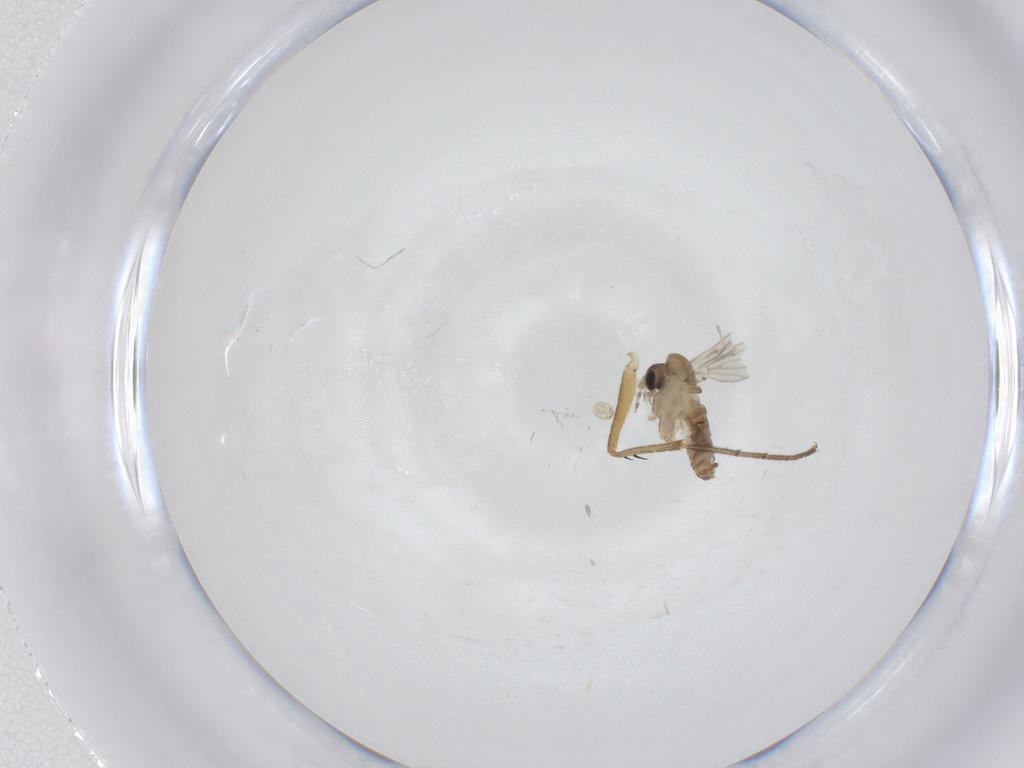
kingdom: Animalia
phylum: Arthropoda
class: Insecta
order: Diptera
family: Dolichopodidae
